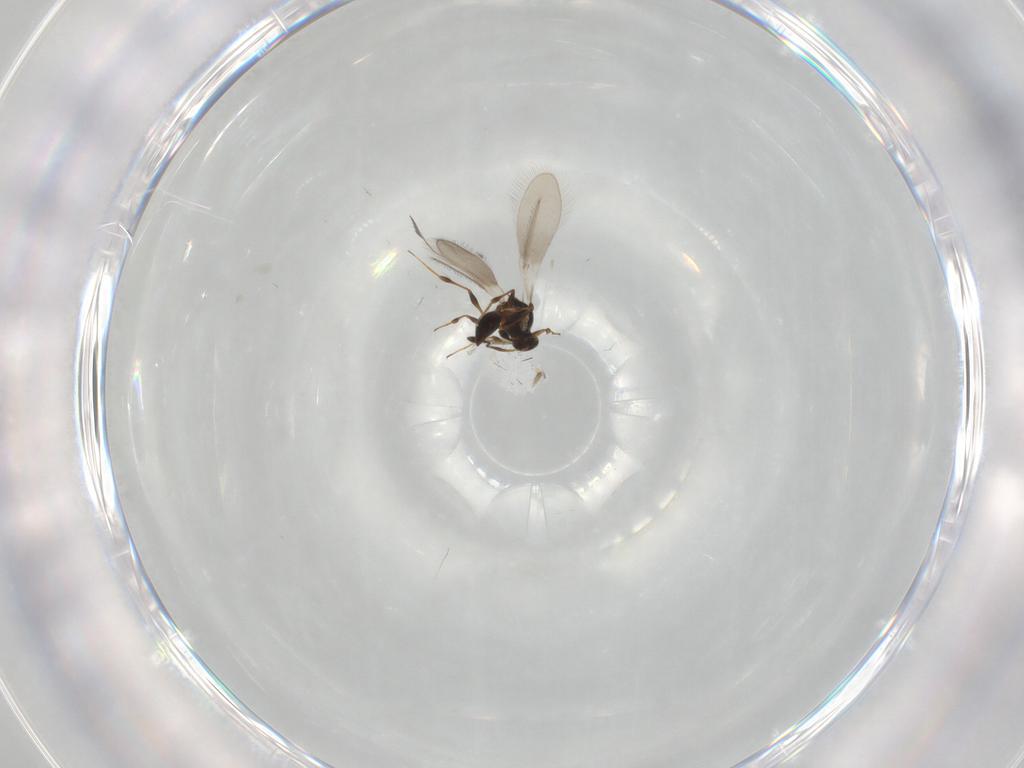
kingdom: Animalia
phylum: Arthropoda
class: Insecta
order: Hymenoptera
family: Platygastridae
